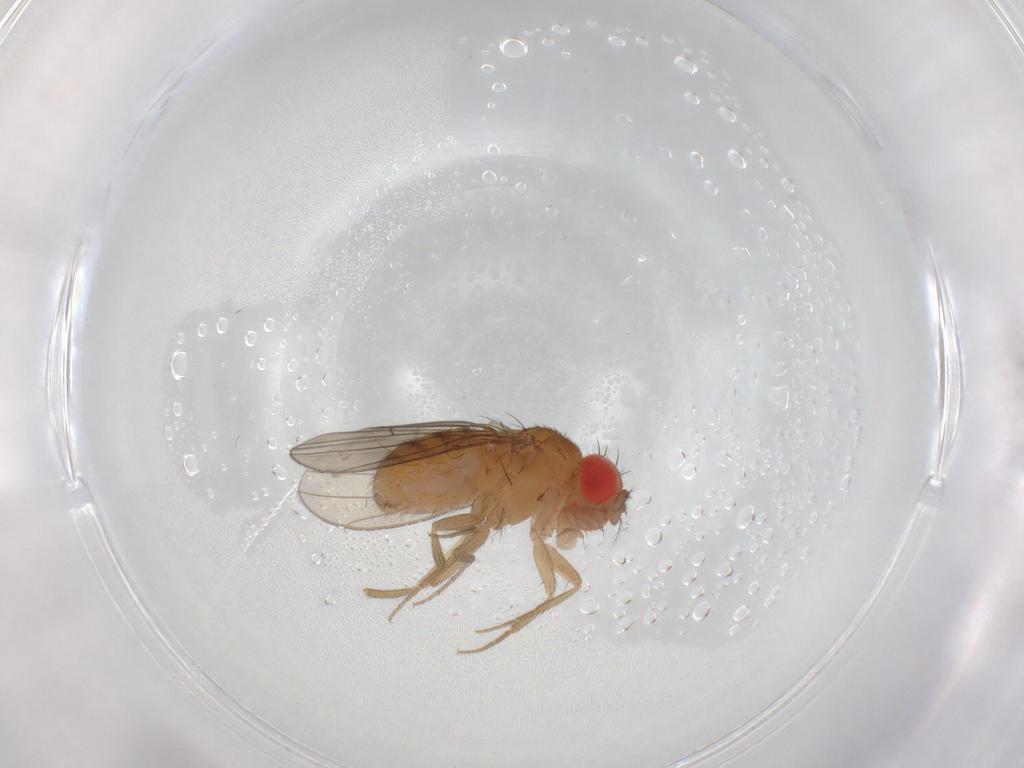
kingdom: Animalia
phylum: Arthropoda
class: Insecta
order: Diptera
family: Drosophilidae
